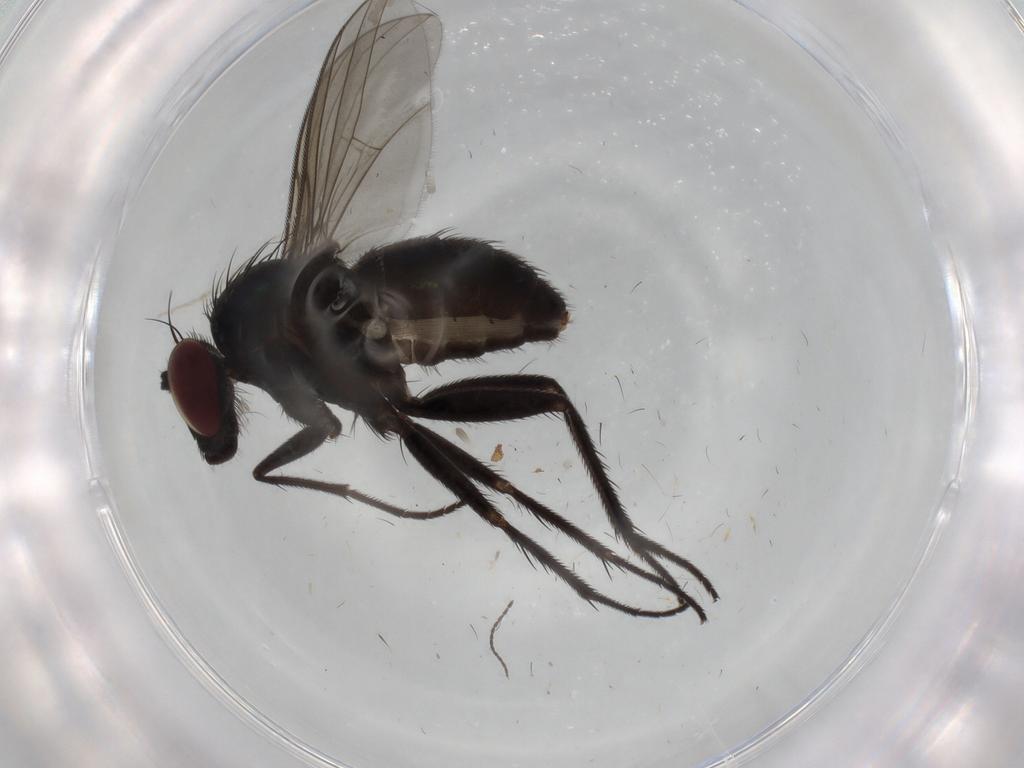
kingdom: Animalia
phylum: Arthropoda
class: Insecta
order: Diptera
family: Dolichopodidae
